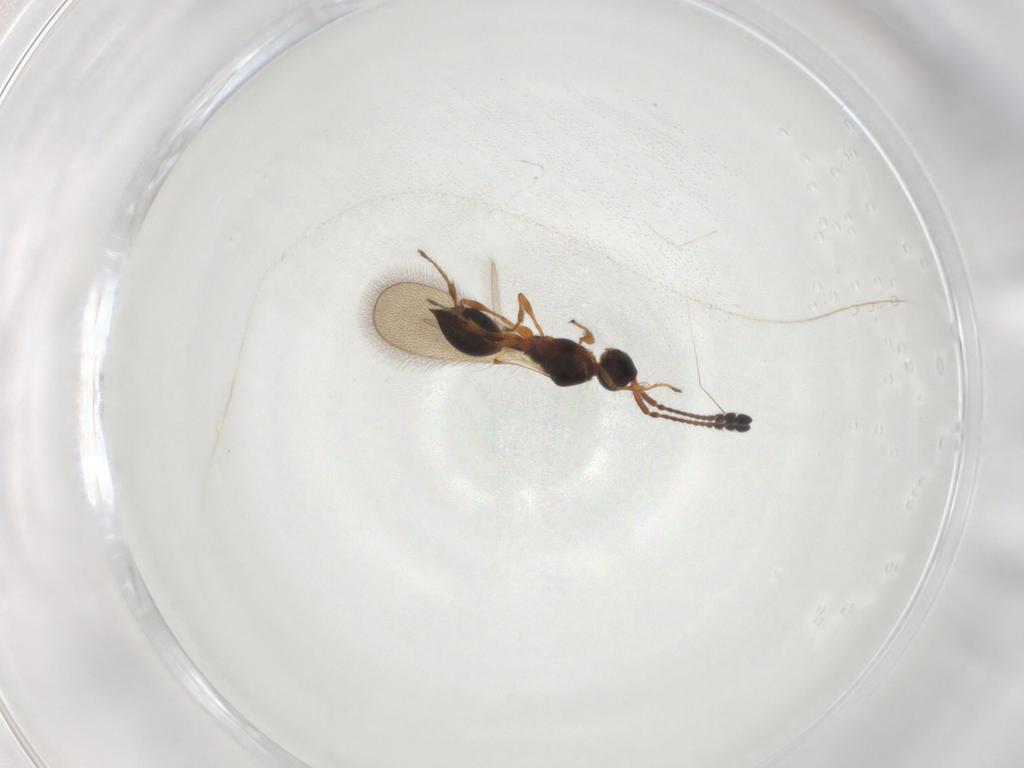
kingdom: Animalia
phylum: Arthropoda
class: Insecta
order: Hymenoptera
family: Diapriidae
